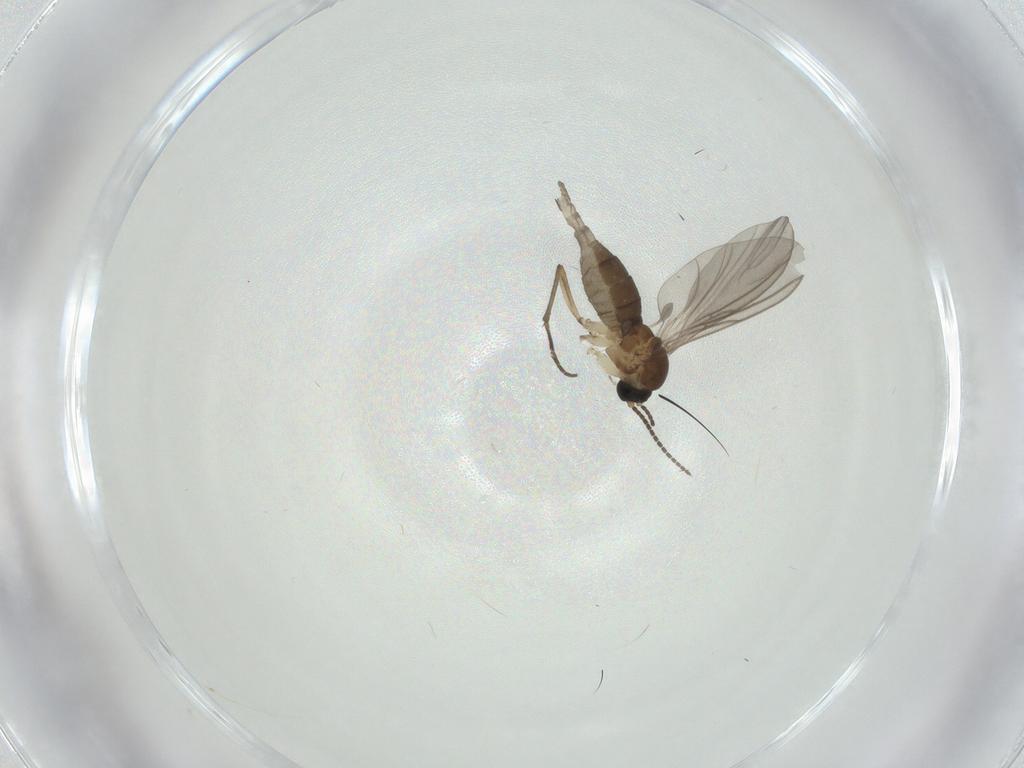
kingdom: Animalia
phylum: Arthropoda
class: Insecta
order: Diptera
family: Sciaridae
